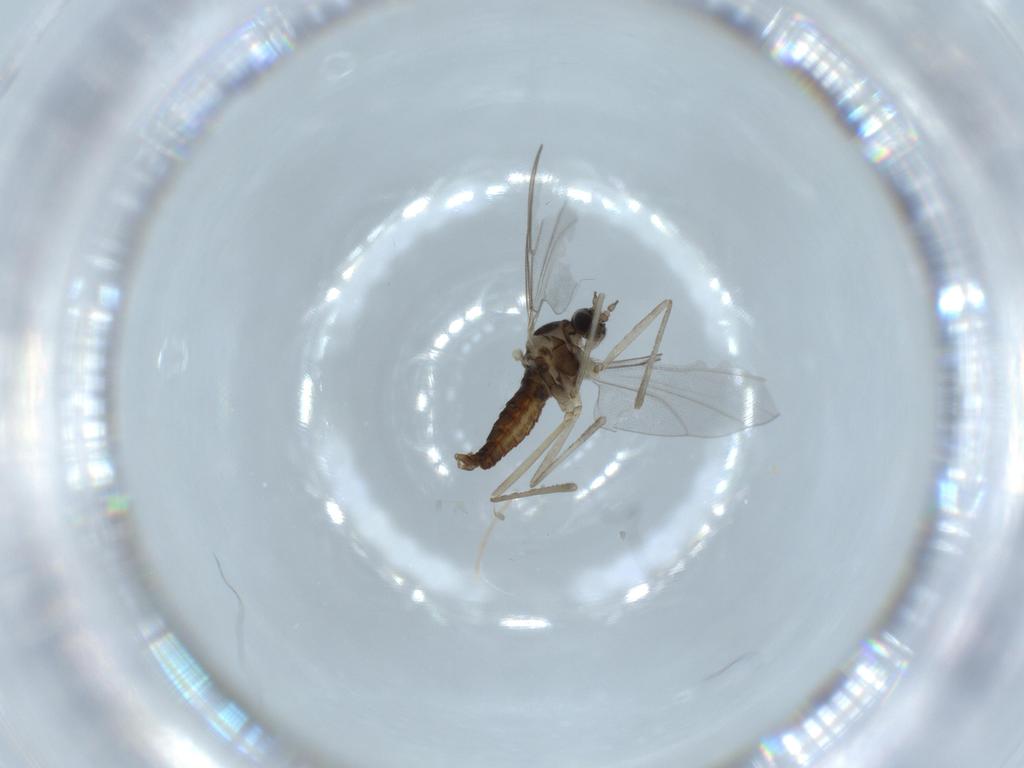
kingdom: Animalia
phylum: Arthropoda
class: Insecta
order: Diptera
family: Cecidomyiidae
